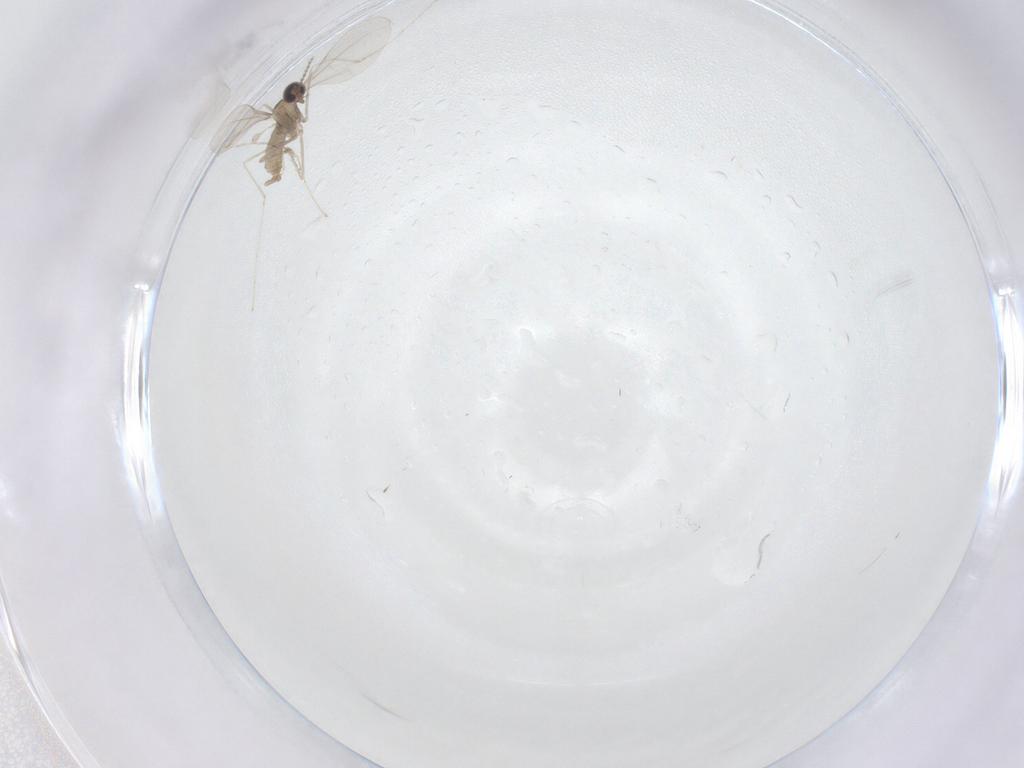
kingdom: Animalia
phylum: Arthropoda
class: Insecta
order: Diptera
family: Cecidomyiidae
